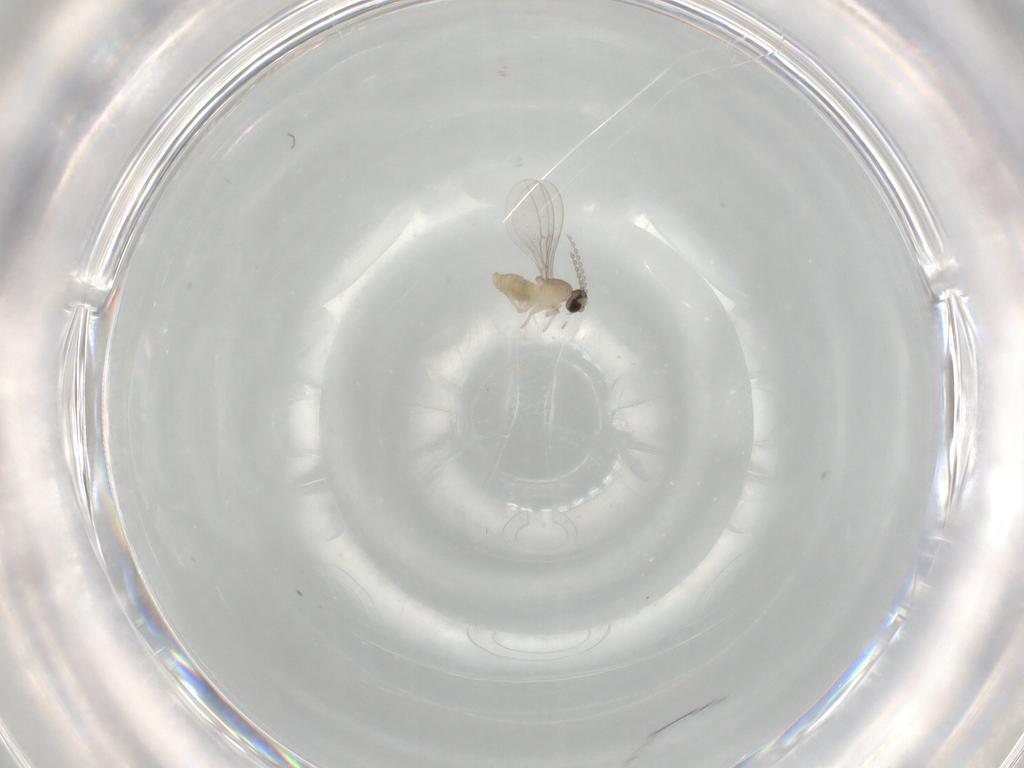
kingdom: Animalia
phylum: Arthropoda
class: Insecta
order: Diptera
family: Cecidomyiidae
